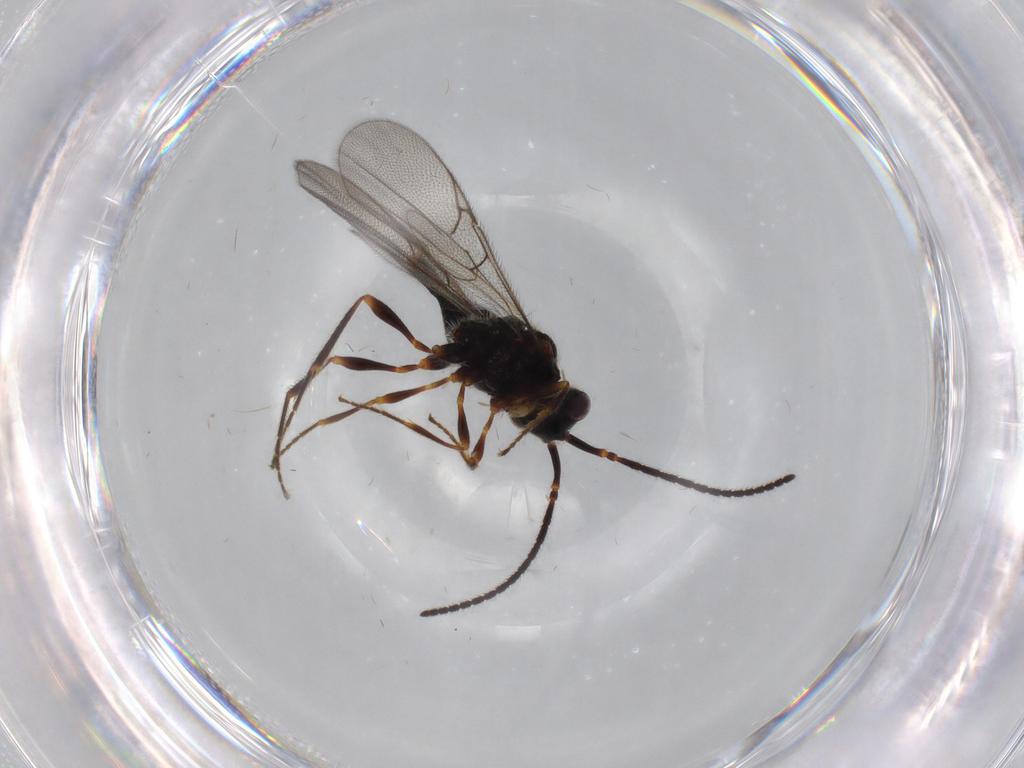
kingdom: Animalia
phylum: Arthropoda
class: Insecta
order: Hymenoptera
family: Diapriidae
